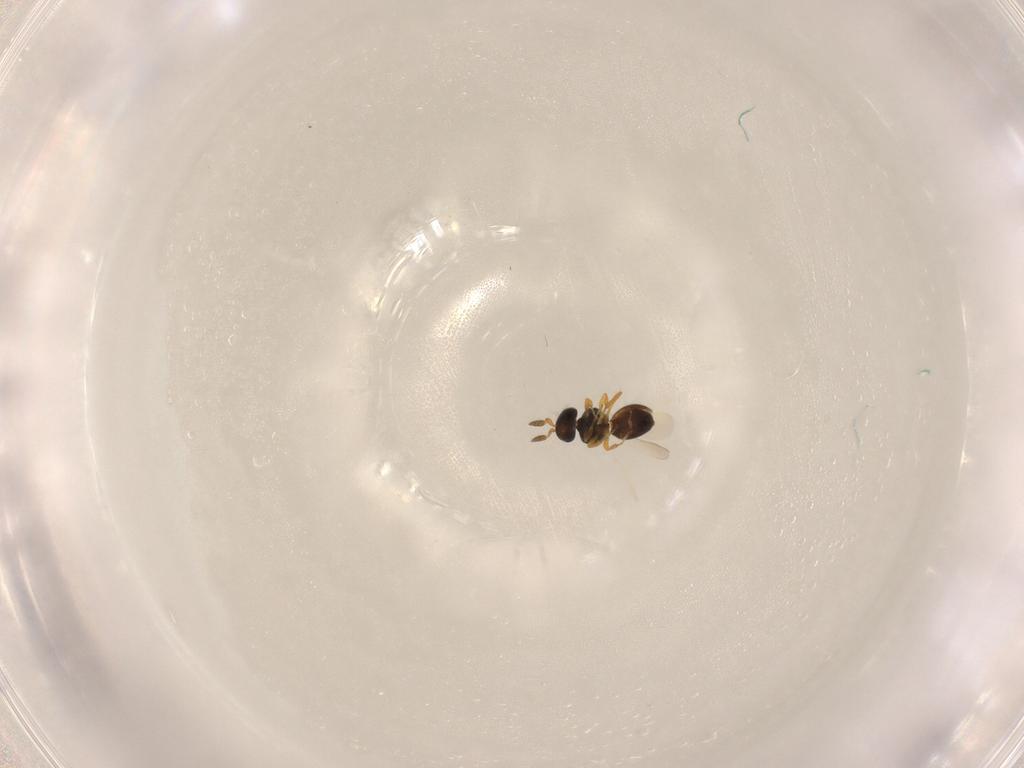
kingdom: Animalia
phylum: Arthropoda
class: Insecta
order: Hymenoptera
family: Platygastridae
